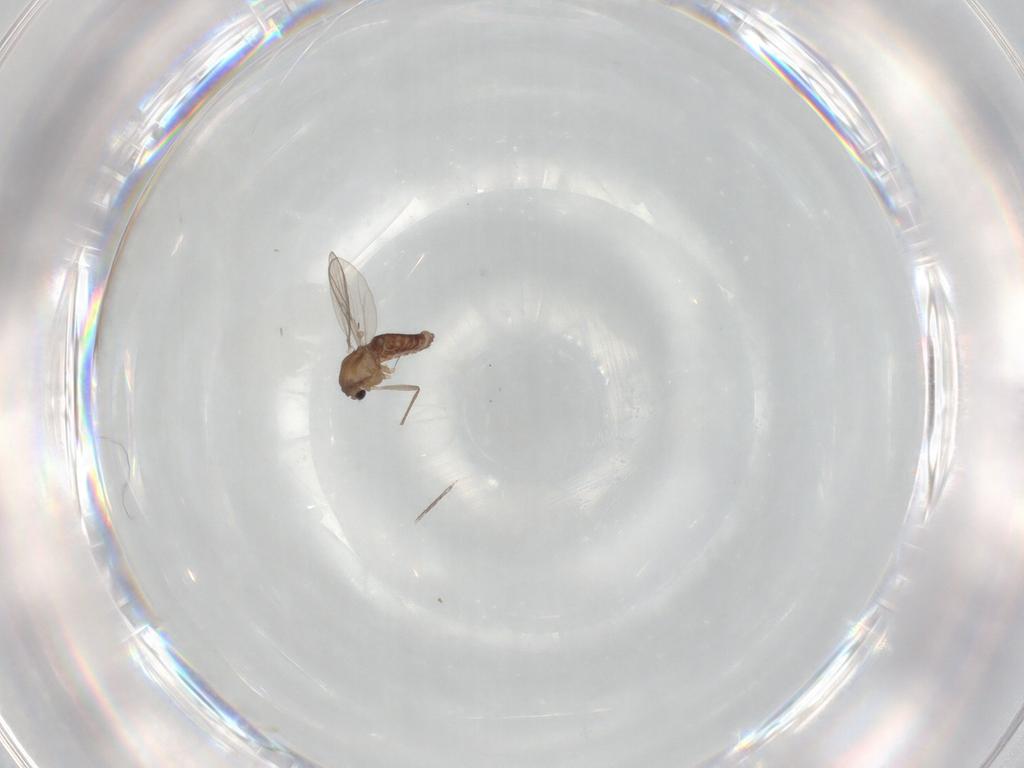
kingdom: Animalia
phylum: Arthropoda
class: Insecta
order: Diptera
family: Chironomidae
